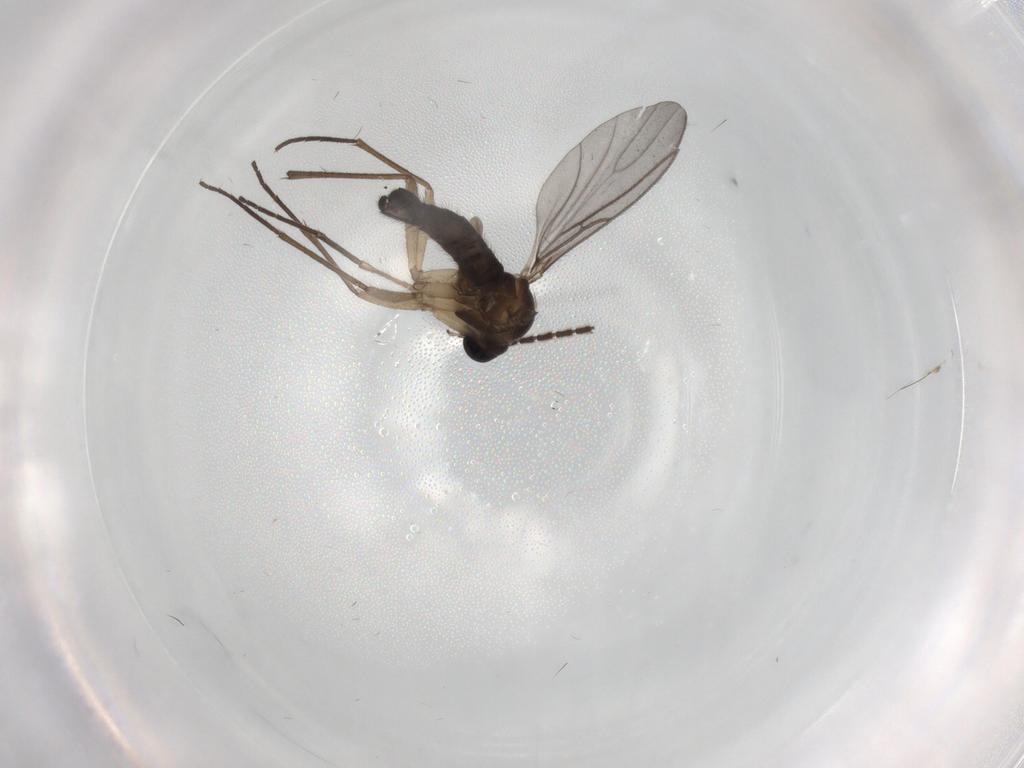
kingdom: Animalia
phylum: Arthropoda
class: Insecta
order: Diptera
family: Sciaridae
